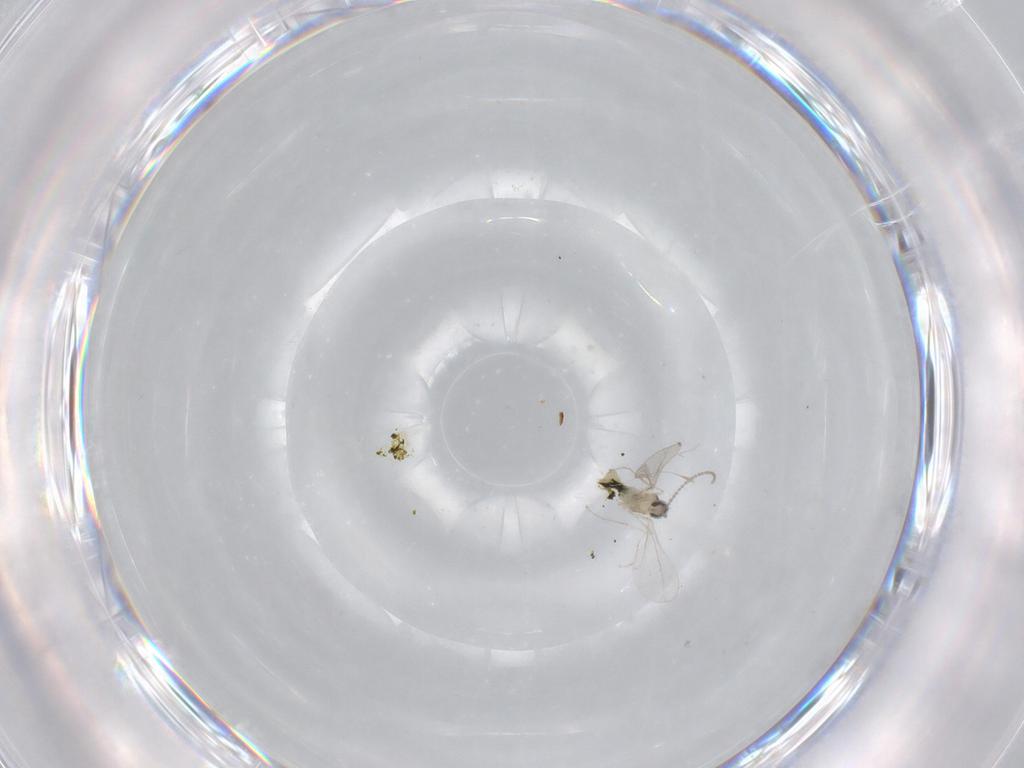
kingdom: Animalia
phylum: Arthropoda
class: Insecta
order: Diptera
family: Cecidomyiidae
